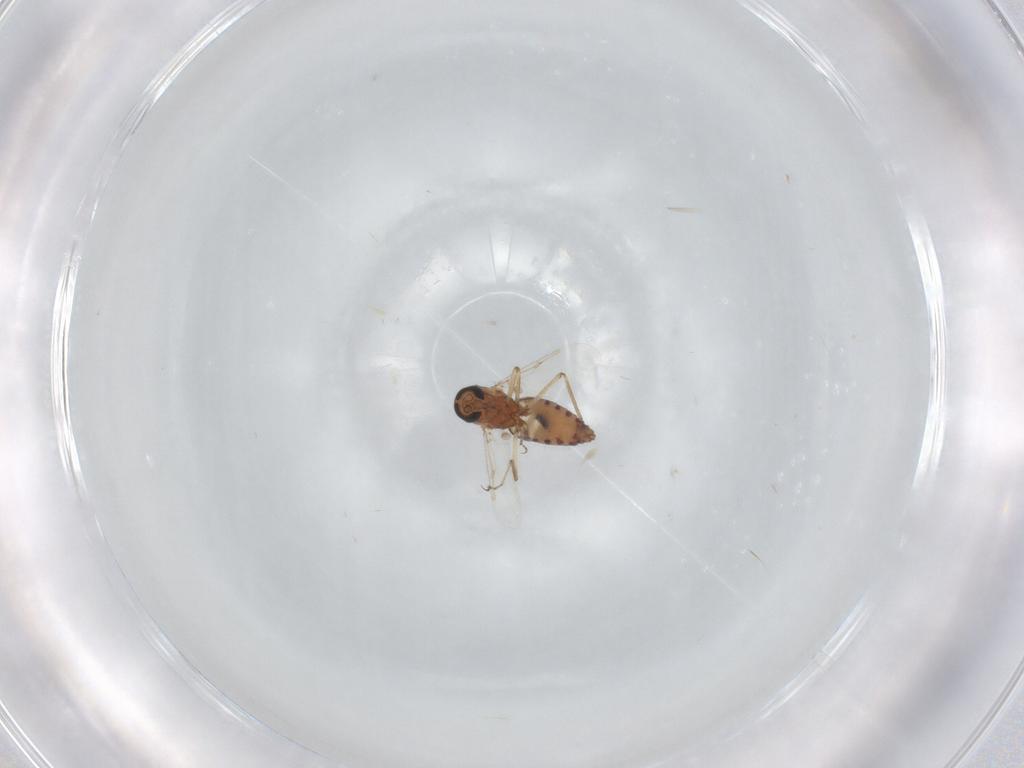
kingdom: Animalia
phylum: Arthropoda
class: Insecta
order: Diptera
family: Ceratopogonidae
